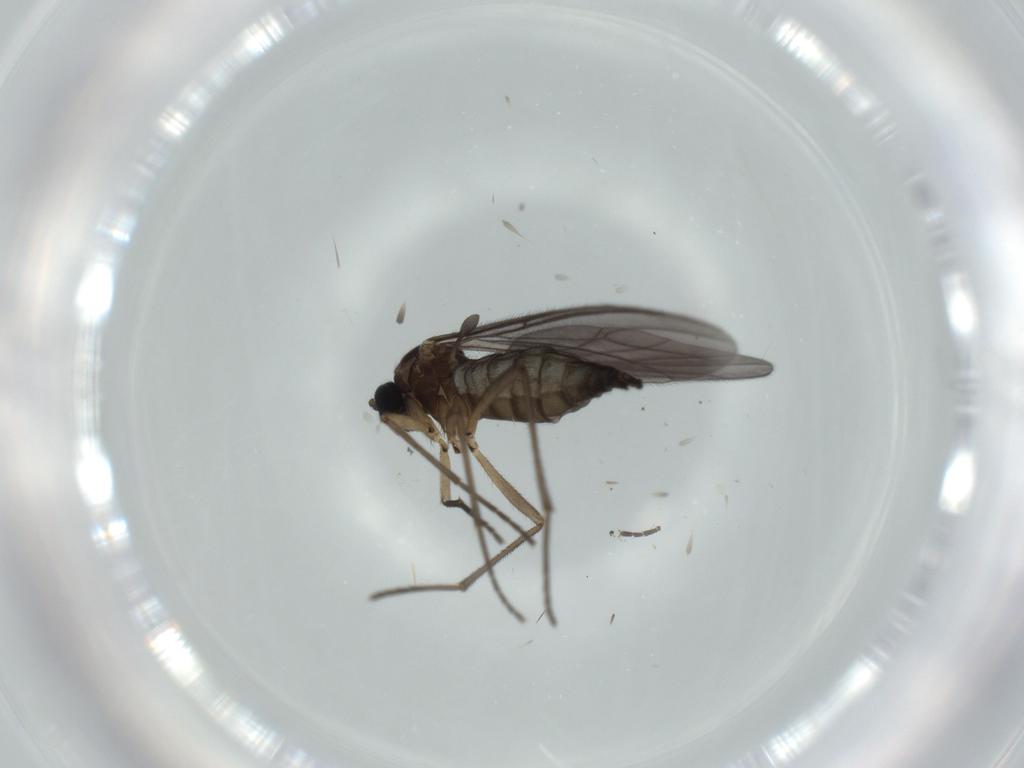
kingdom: Animalia
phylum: Arthropoda
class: Insecta
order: Diptera
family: Sciaridae
